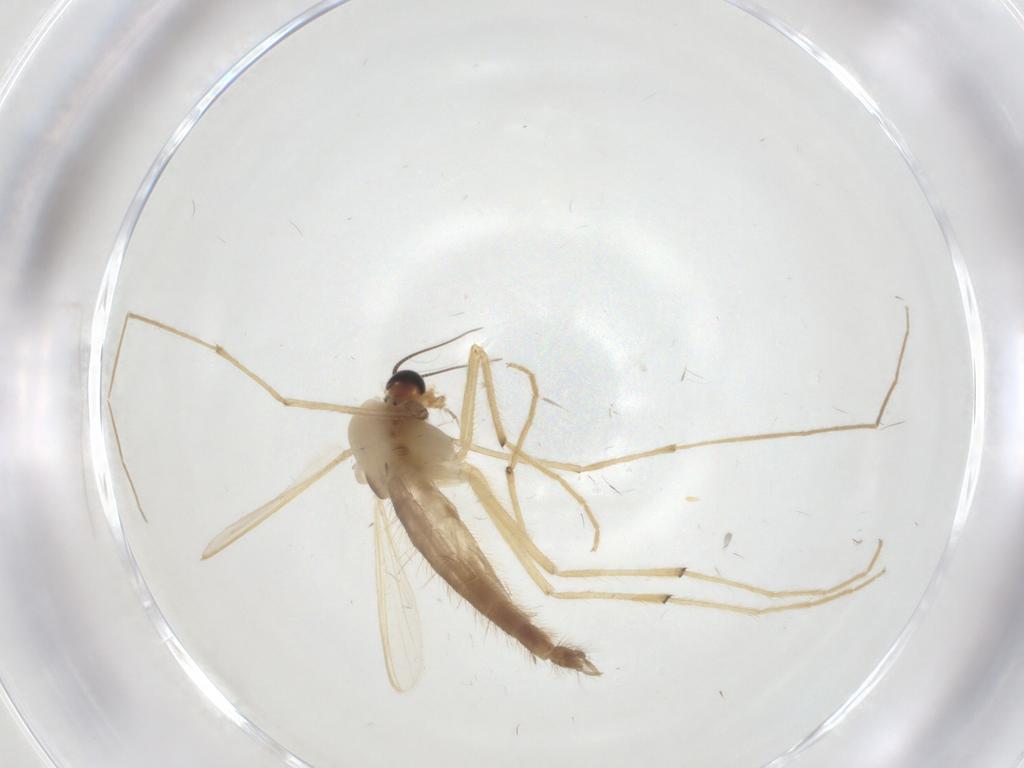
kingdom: Animalia
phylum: Arthropoda
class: Insecta
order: Diptera
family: Chironomidae
